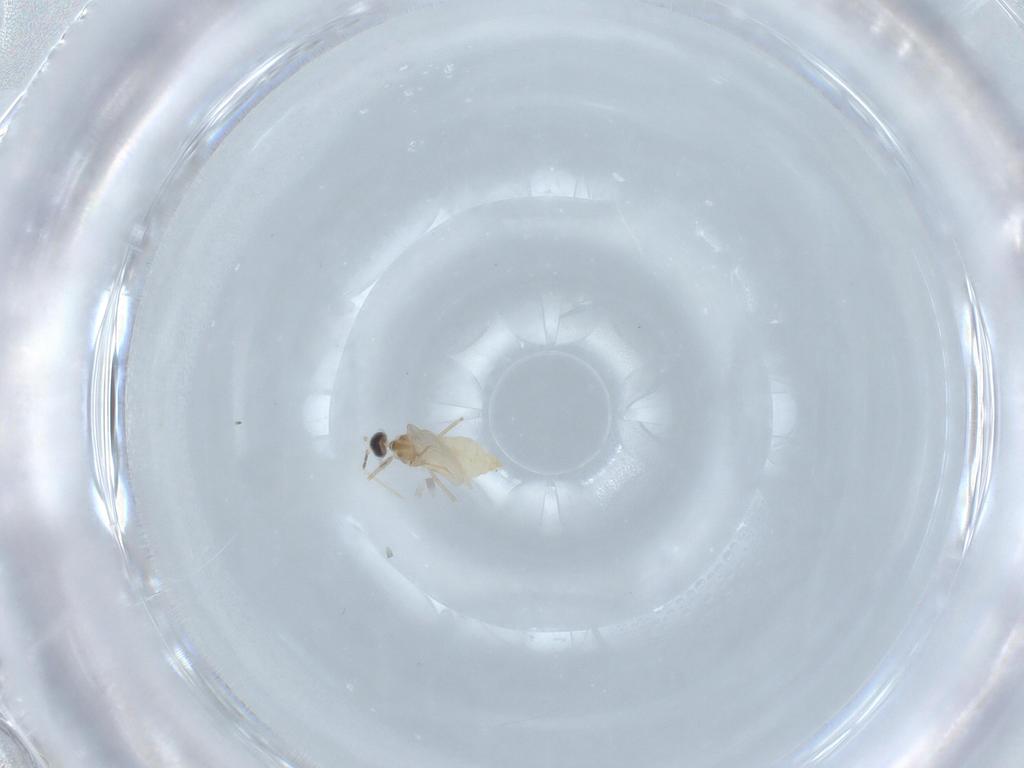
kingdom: Animalia
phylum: Arthropoda
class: Insecta
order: Diptera
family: Cecidomyiidae
